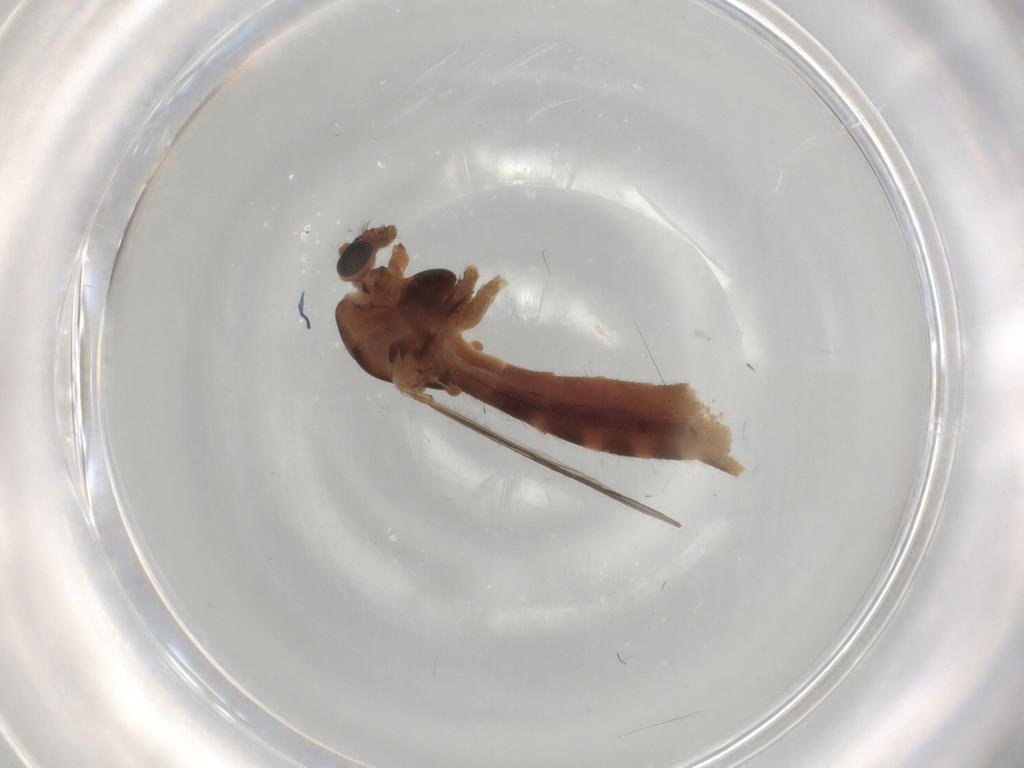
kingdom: Animalia
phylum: Arthropoda
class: Insecta
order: Diptera
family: Chironomidae
